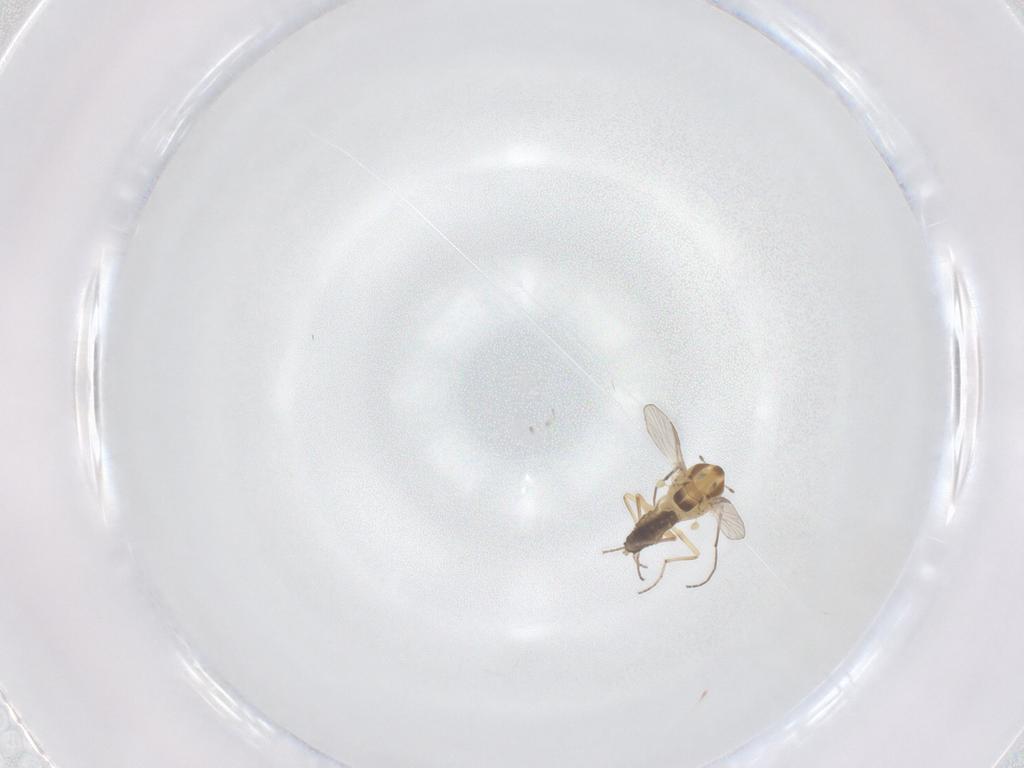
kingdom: Animalia
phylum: Arthropoda
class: Insecta
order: Diptera
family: Chironomidae
